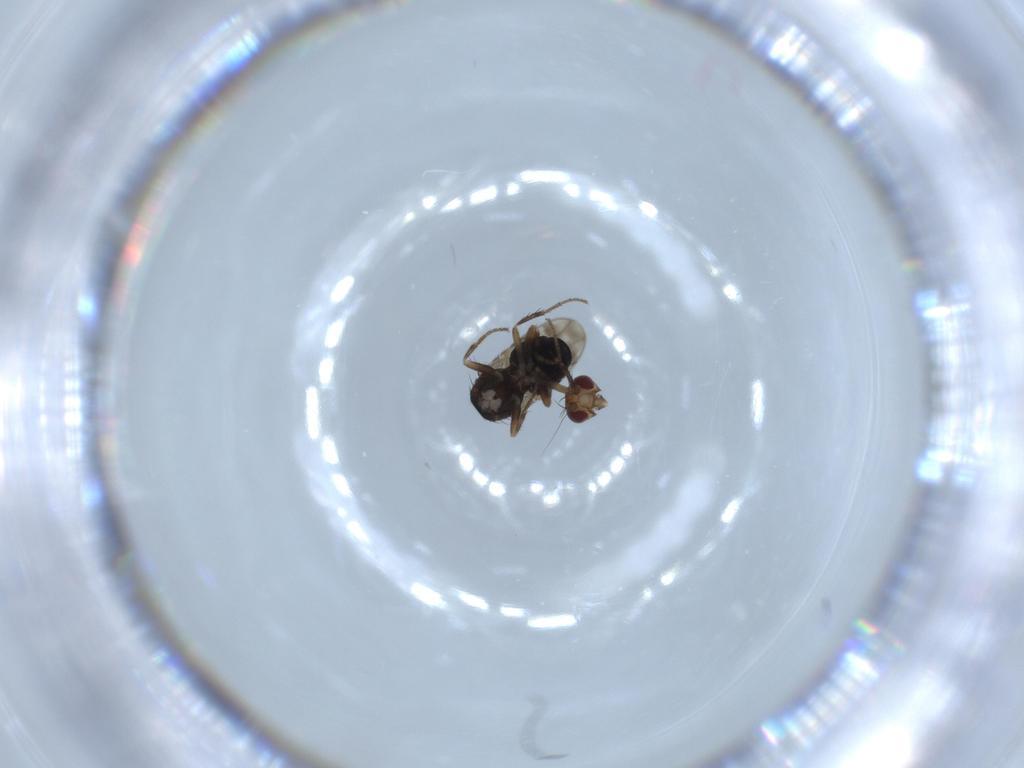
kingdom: Animalia
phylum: Arthropoda
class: Insecta
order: Diptera
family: Sphaeroceridae
